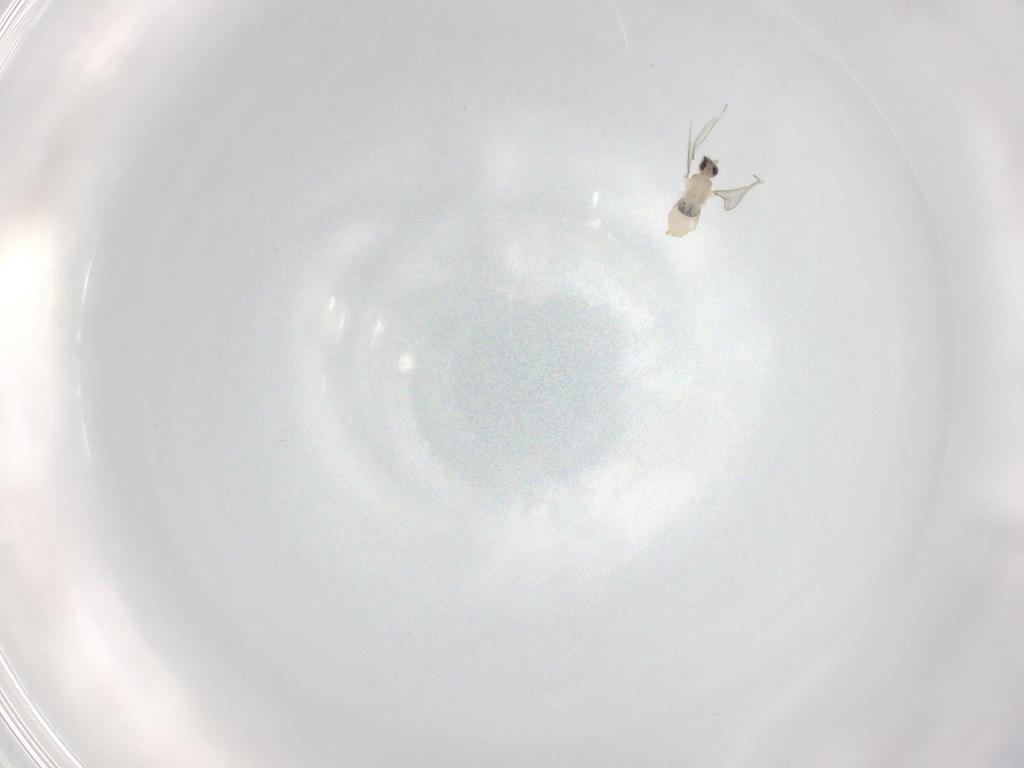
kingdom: Animalia
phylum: Arthropoda
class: Insecta
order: Diptera
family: Cecidomyiidae
